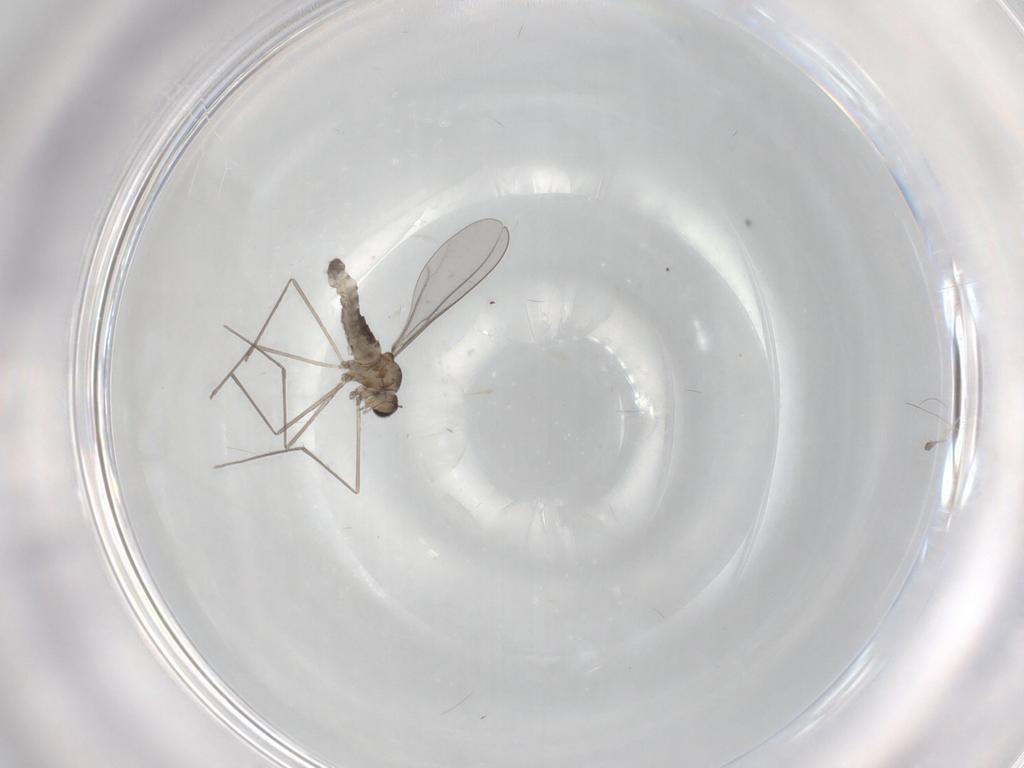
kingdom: Animalia
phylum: Arthropoda
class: Insecta
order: Diptera
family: Cecidomyiidae
